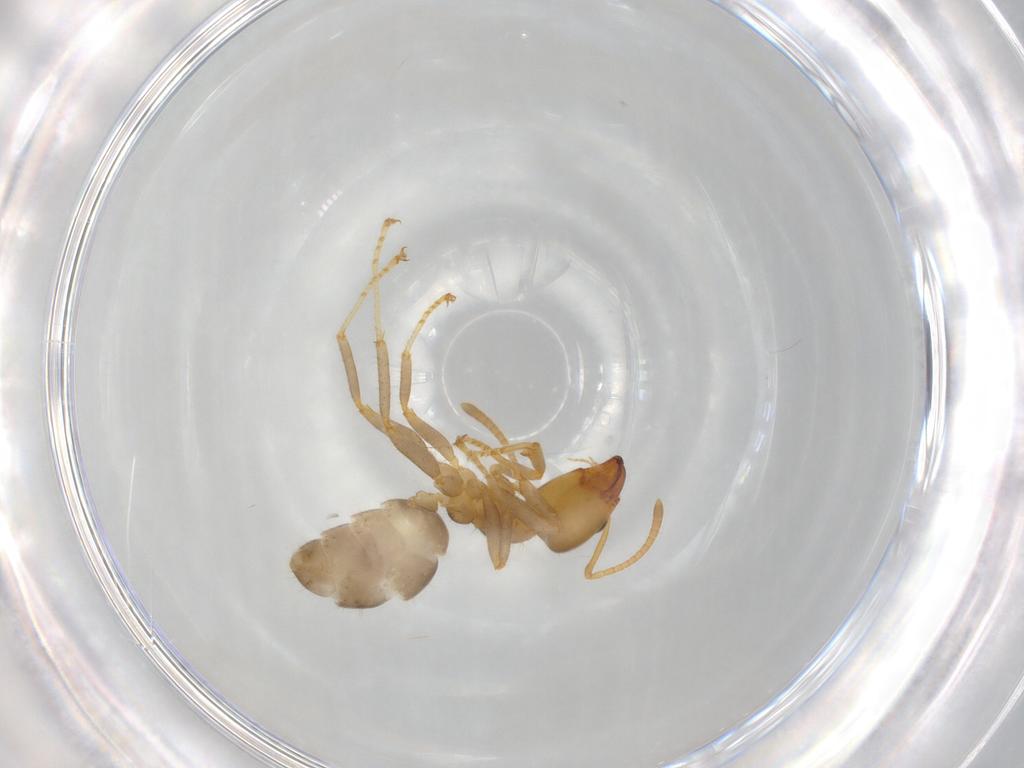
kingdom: Animalia
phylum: Arthropoda
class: Insecta
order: Hymenoptera
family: Formicidae
